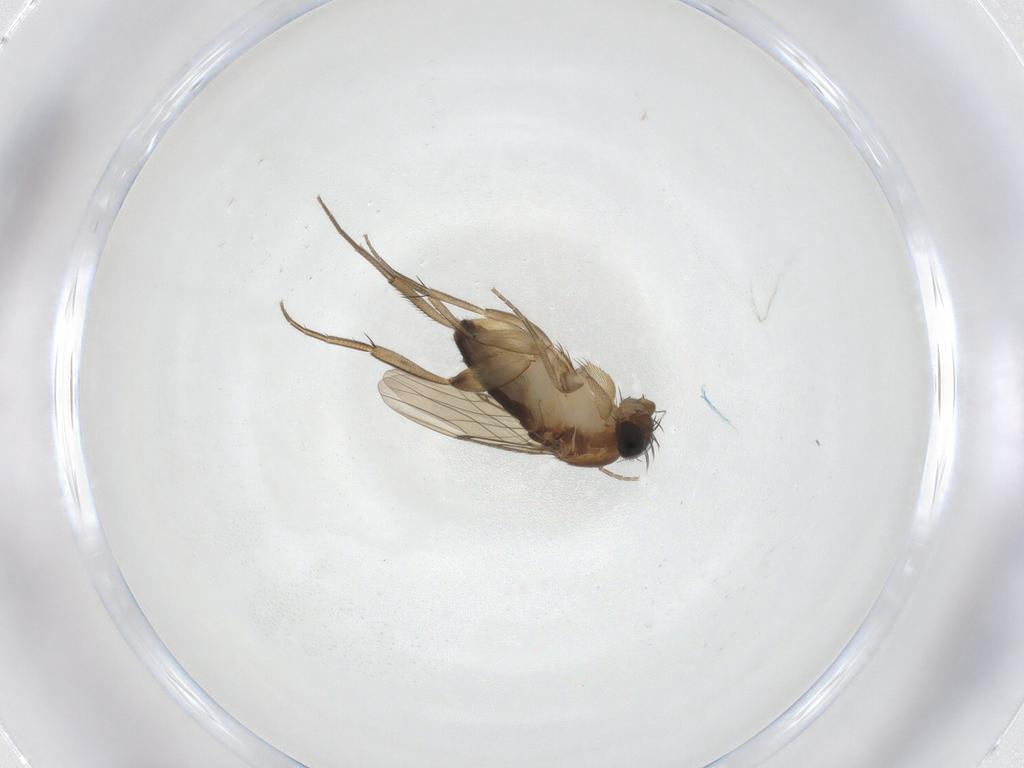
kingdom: Animalia
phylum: Arthropoda
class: Insecta
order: Diptera
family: Phoridae
